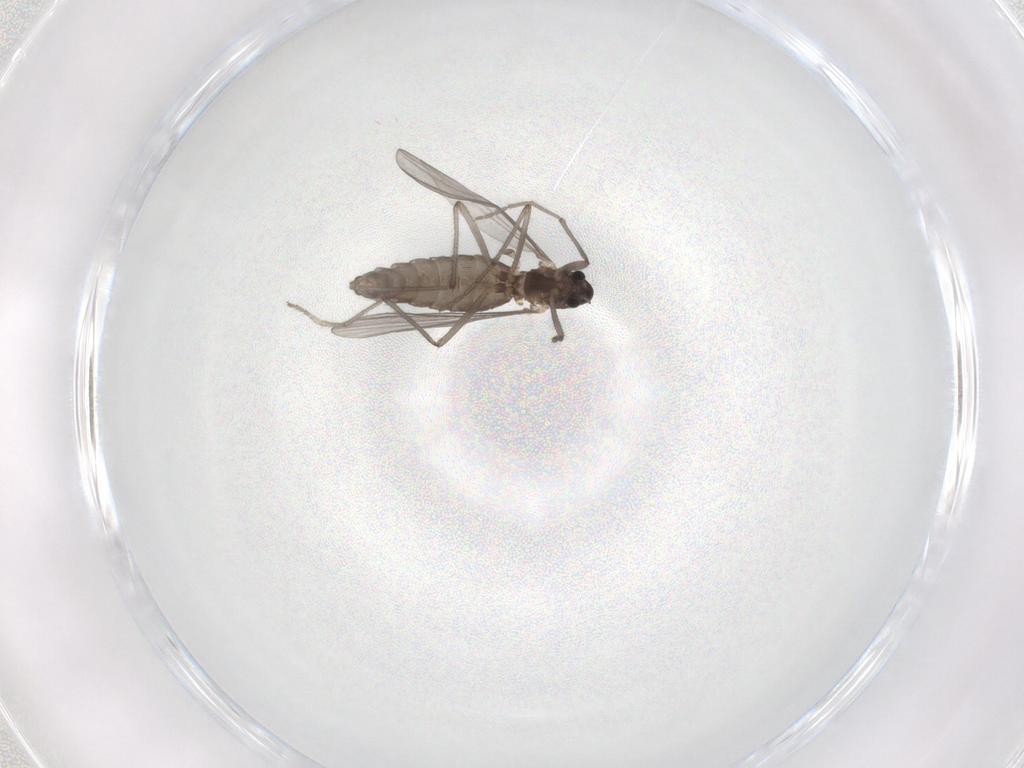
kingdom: Animalia
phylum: Arthropoda
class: Insecta
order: Diptera
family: Chironomidae
